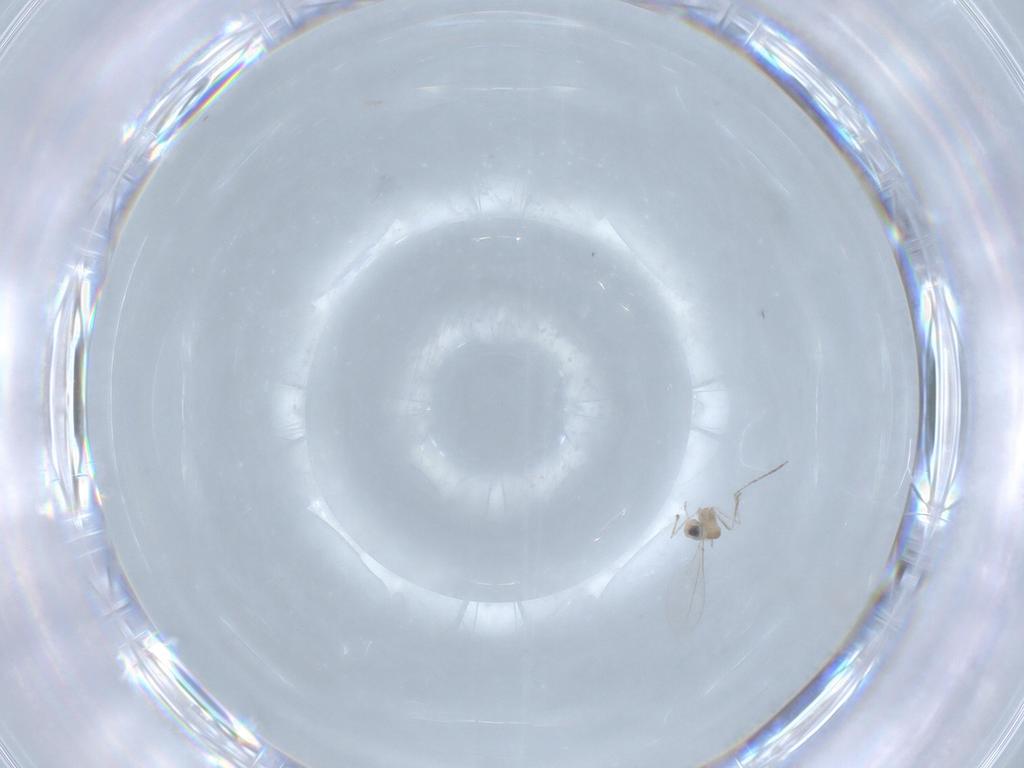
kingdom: Animalia
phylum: Arthropoda
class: Insecta
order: Diptera
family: Cecidomyiidae
